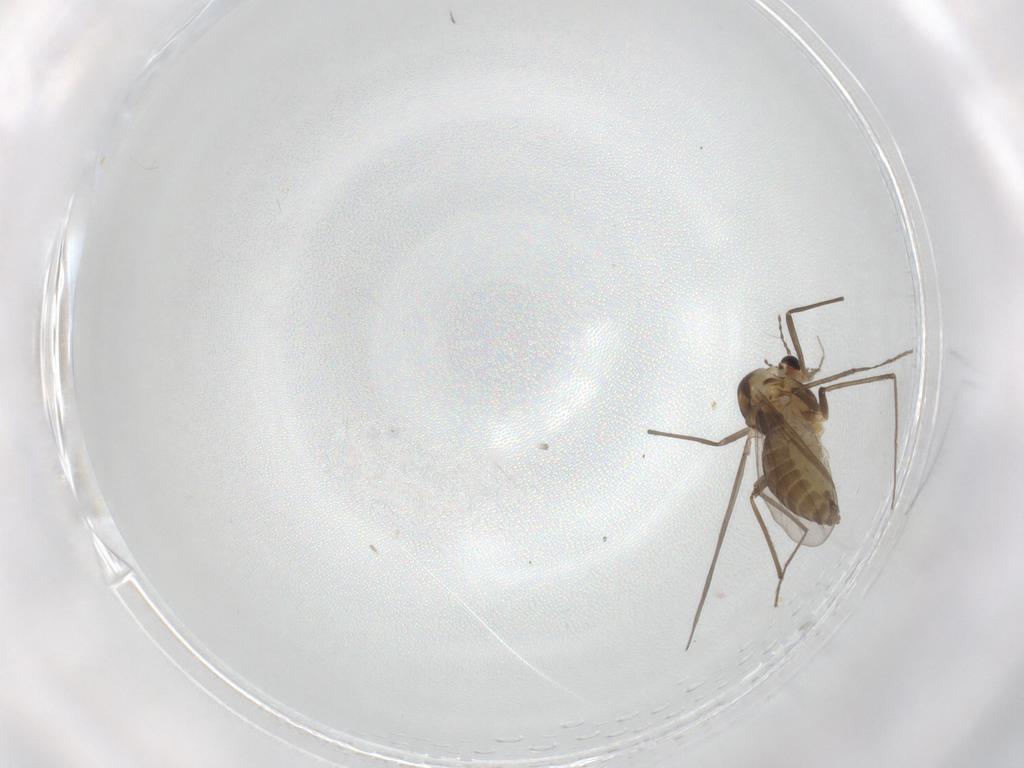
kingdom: Animalia
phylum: Arthropoda
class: Insecta
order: Diptera
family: Chironomidae
